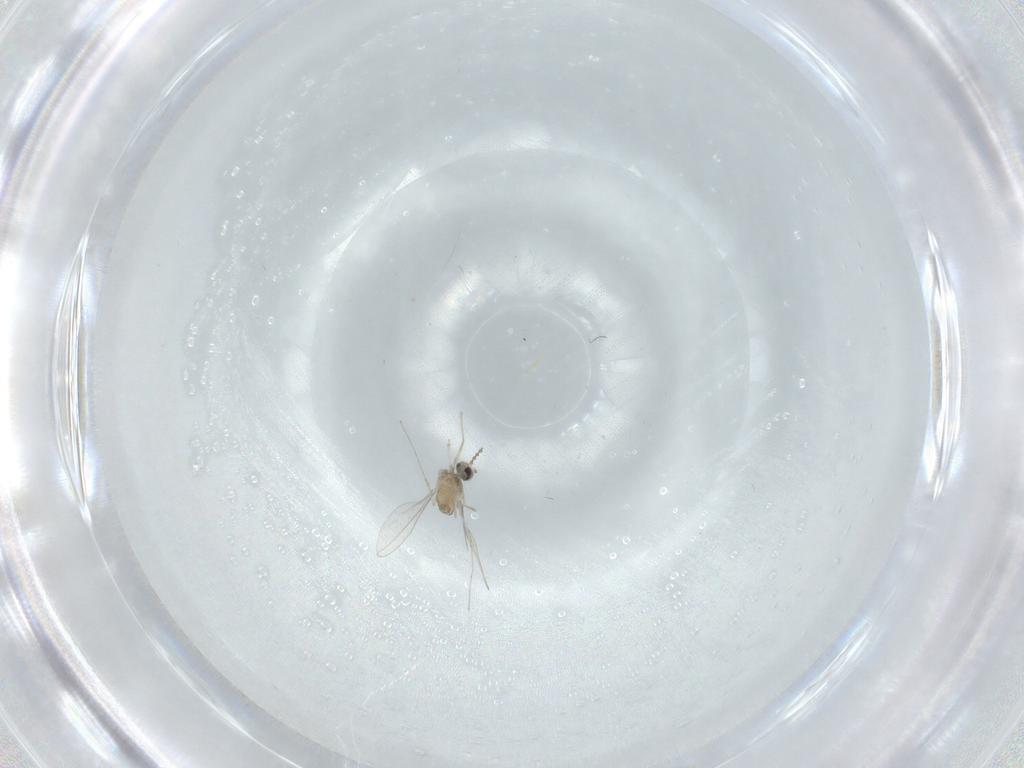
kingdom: Animalia
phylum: Arthropoda
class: Insecta
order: Diptera
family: Cecidomyiidae
